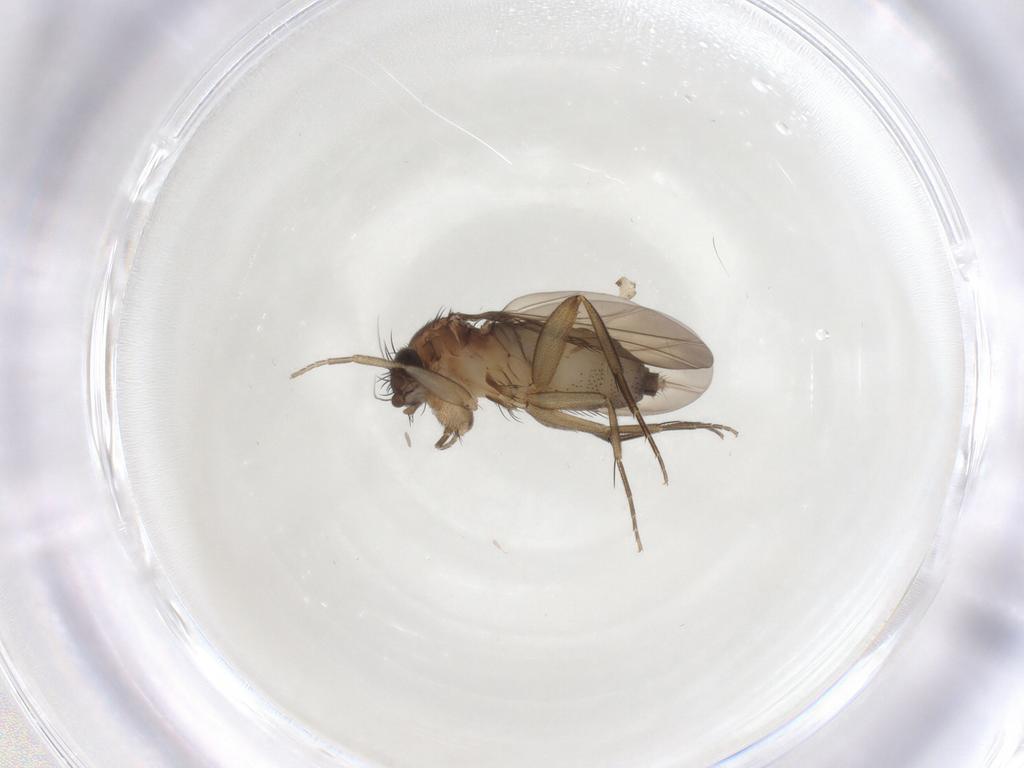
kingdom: Animalia
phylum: Arthropoda
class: Insecta
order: Diptera
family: Phoridae
